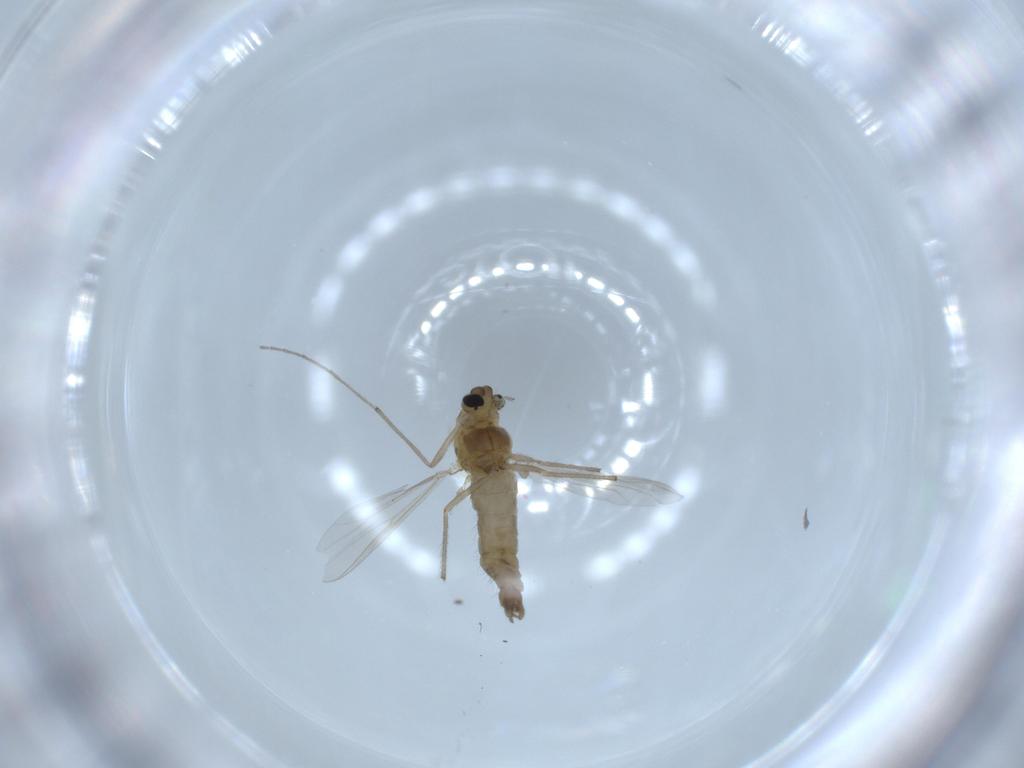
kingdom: Animalia
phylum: Arthropoda
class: Insecta
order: Diptera
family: Chironomidae
